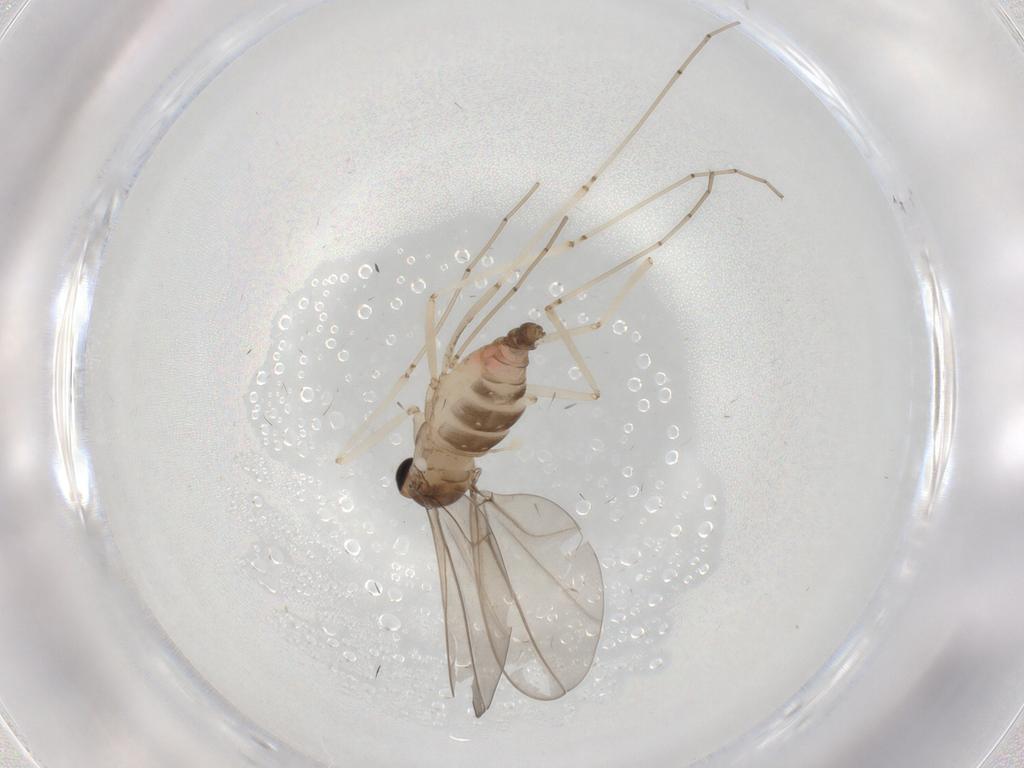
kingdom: Animalia
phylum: Arthropoda
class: Insecta
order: Diptera
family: Cecidomyiidae
